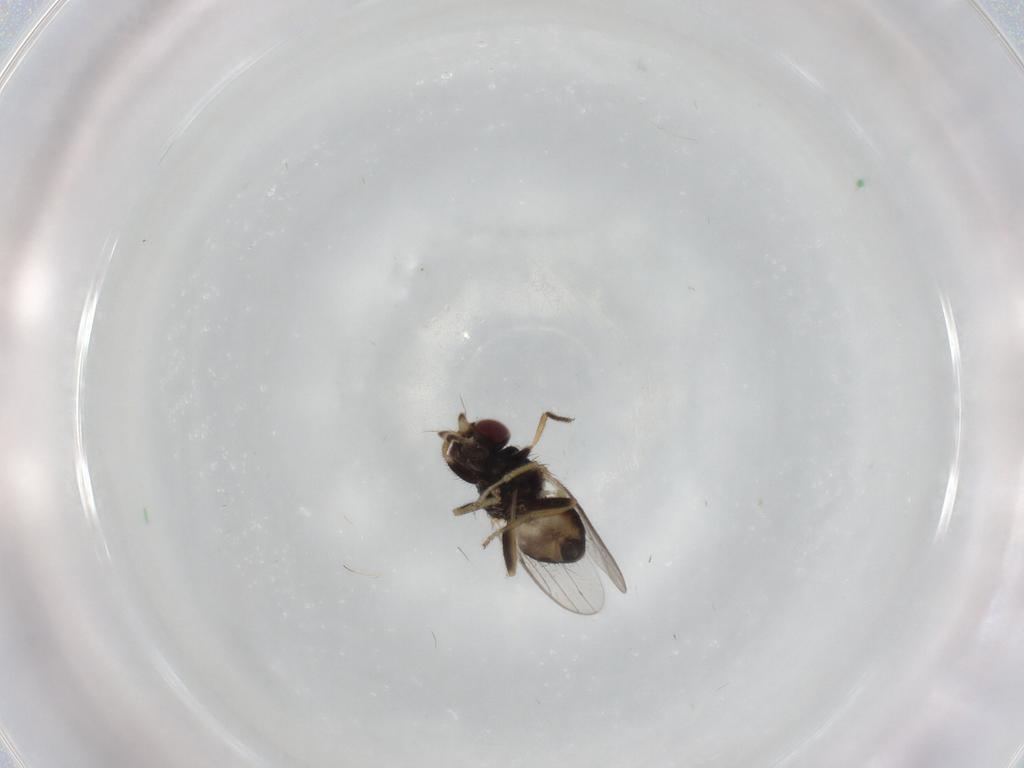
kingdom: Animalia
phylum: Arthropoda
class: Insecta
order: Diptera
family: Chloropidae
